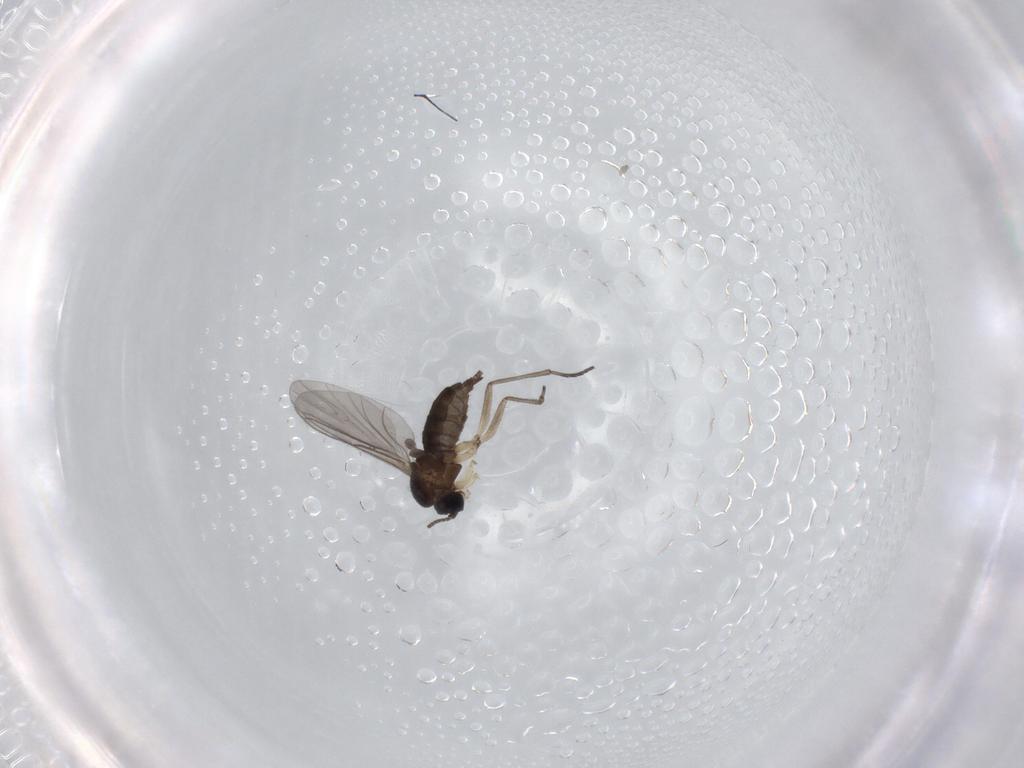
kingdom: Animalia
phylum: Arthropoda
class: Insecta
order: Diptera
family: Sciaridae
